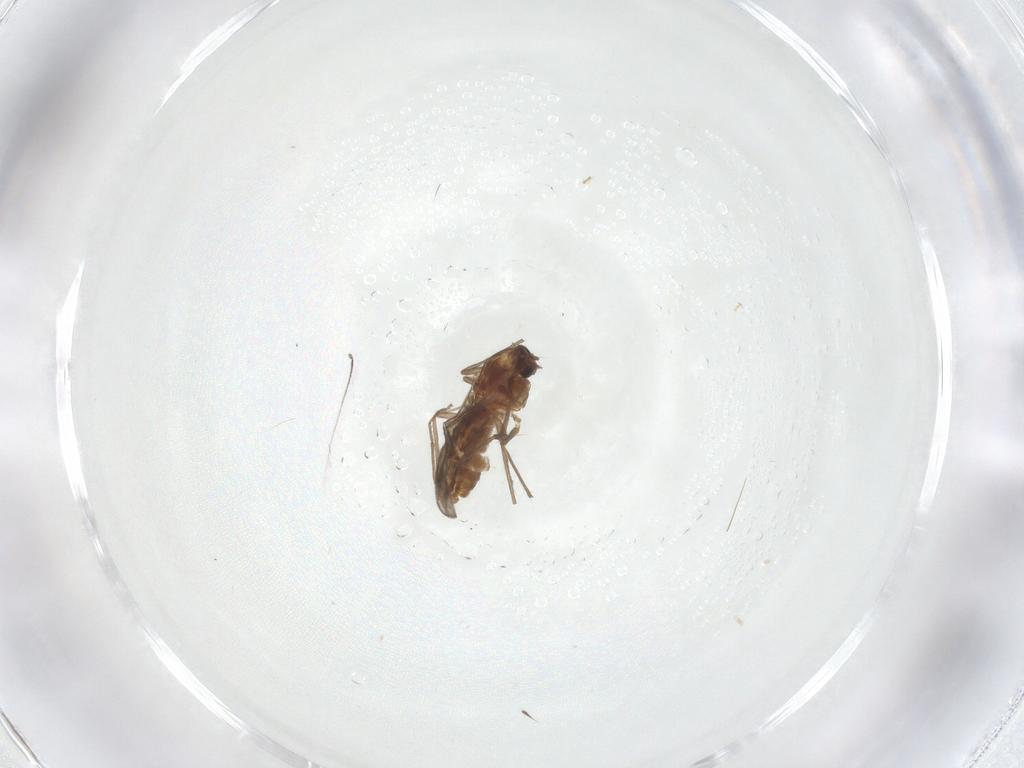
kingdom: Animalia
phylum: Arthropoda
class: Insecta
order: Diptera
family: Chironomidae
